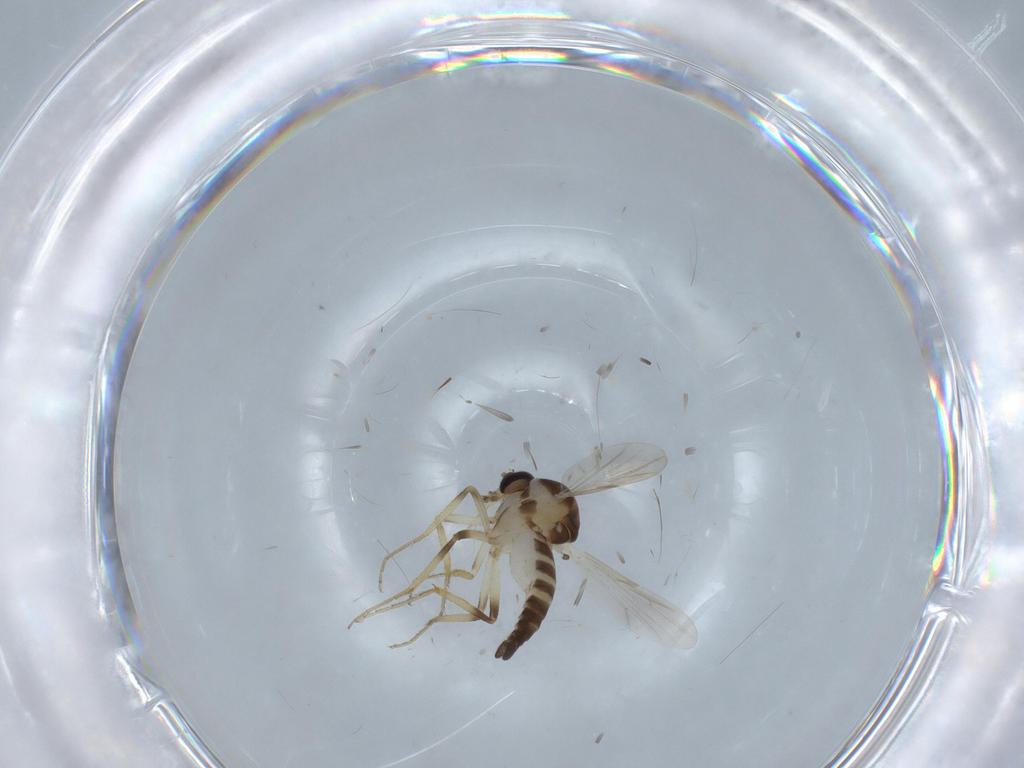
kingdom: Animalia
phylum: Arthropoda
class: Insecta
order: Diptera
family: Ceratopogonidae
